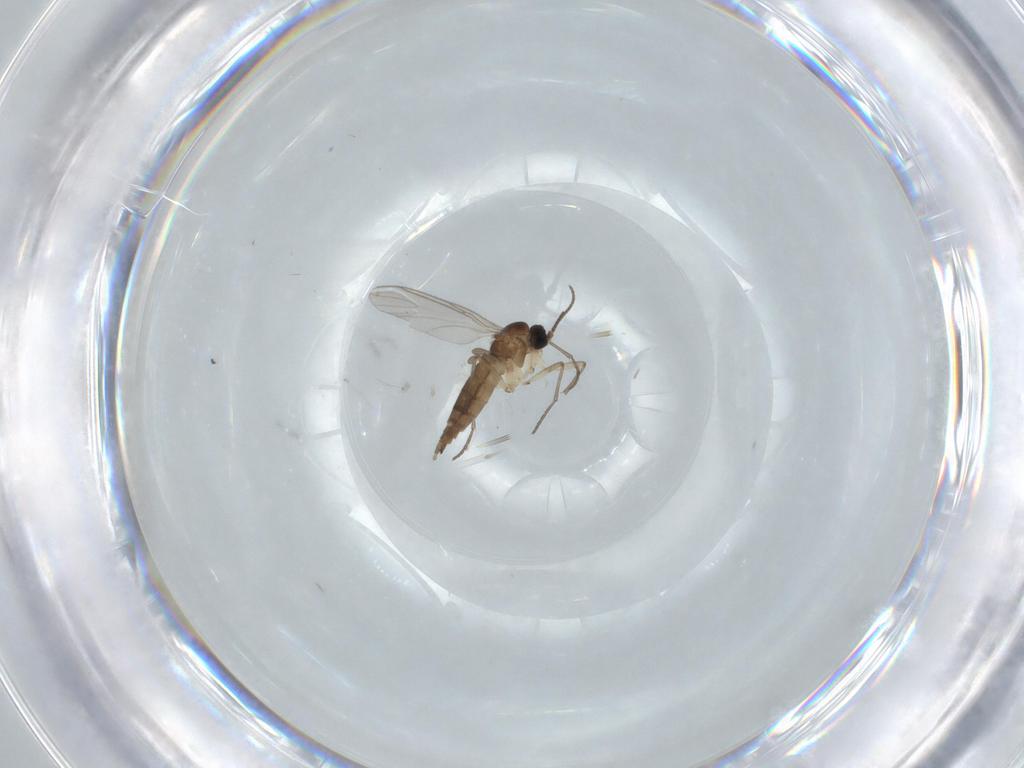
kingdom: Animalia
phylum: Arthropoda
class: Insecta
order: Diptera
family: Sciaridae
